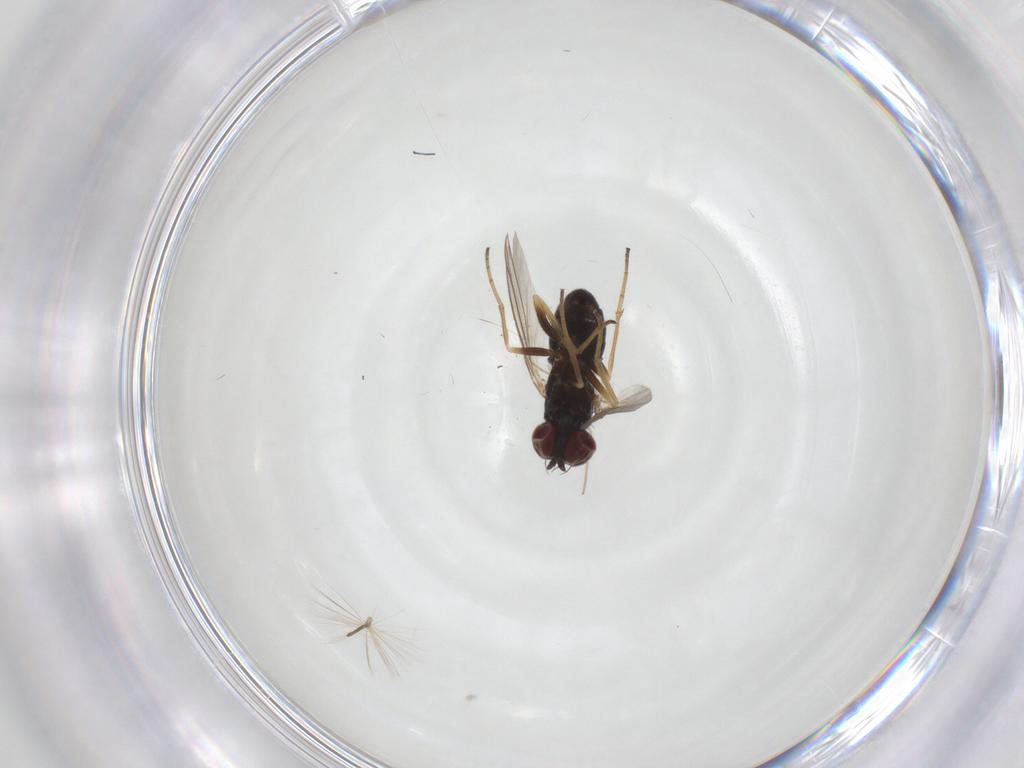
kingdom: Animalia
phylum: Arthropoda
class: Insecta
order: Diptera
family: Dolichopodidae
